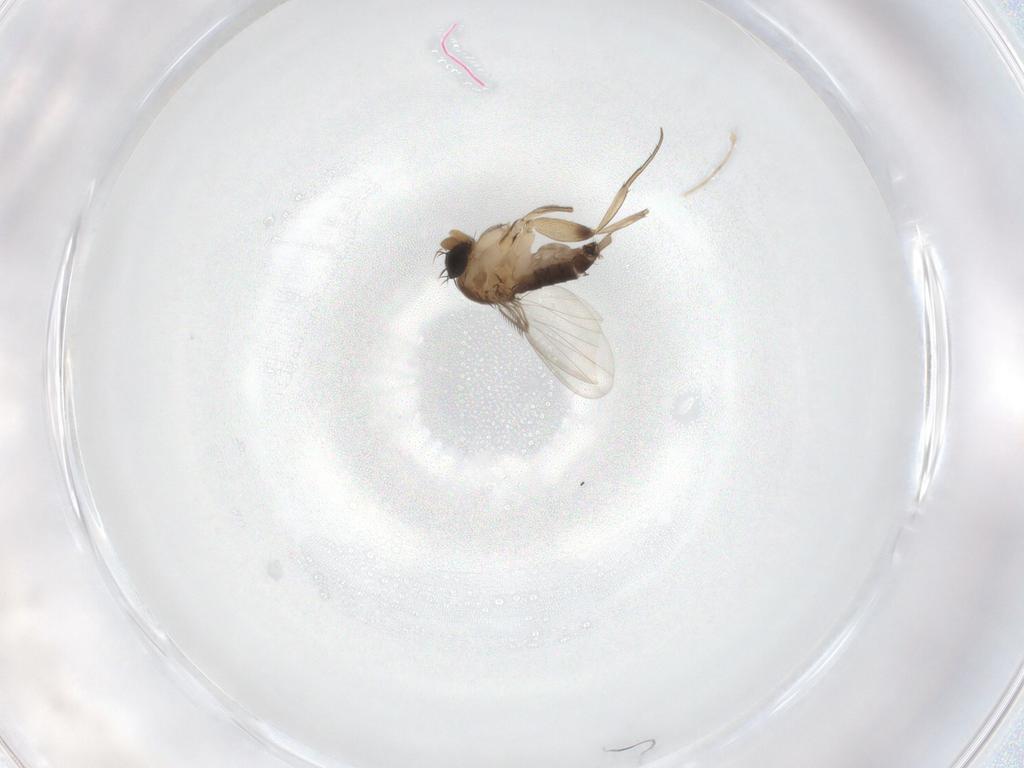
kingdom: Animalia
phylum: Arthropoda
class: Insecta
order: Diptera
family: Phoridae
